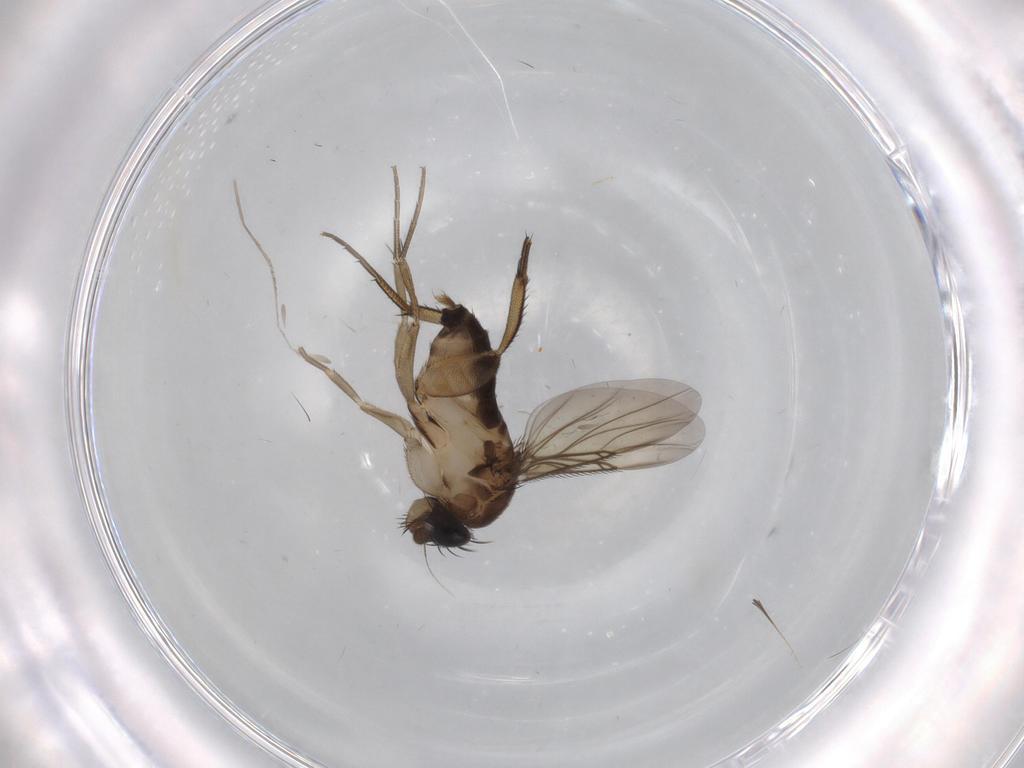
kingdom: Animalia
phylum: Arthropoda
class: Insecta
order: Diptera
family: Phoridae
